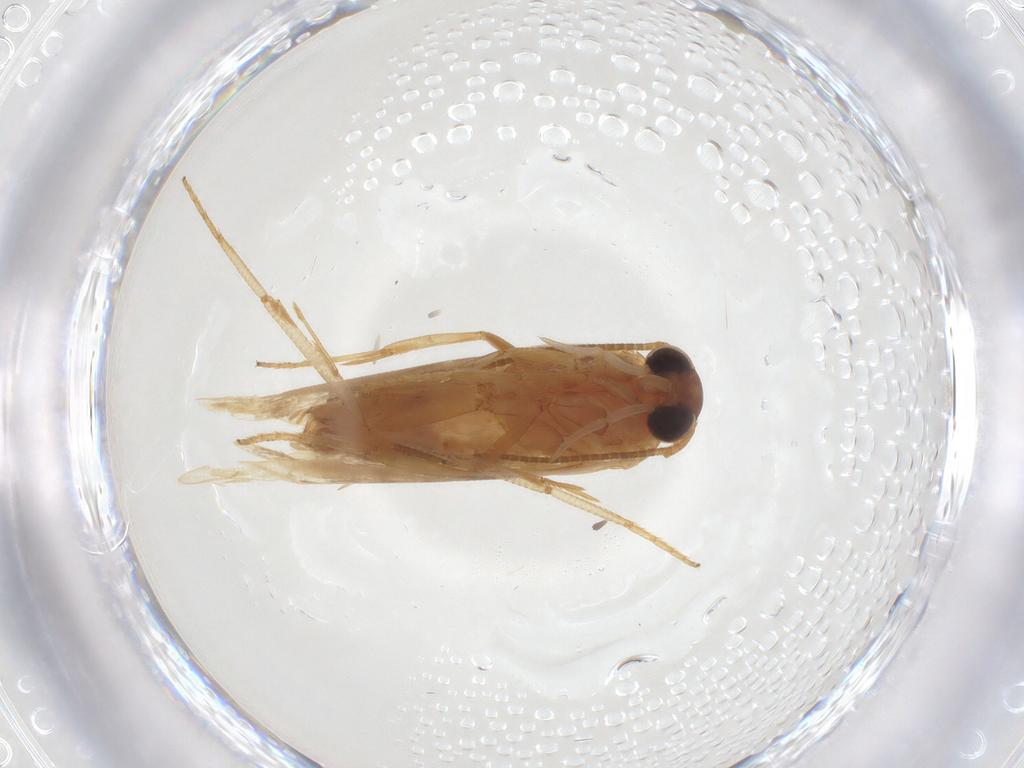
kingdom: Animalia
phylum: Arthropoda
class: Insecta
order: Lepidoptera
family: Blastobasidae
